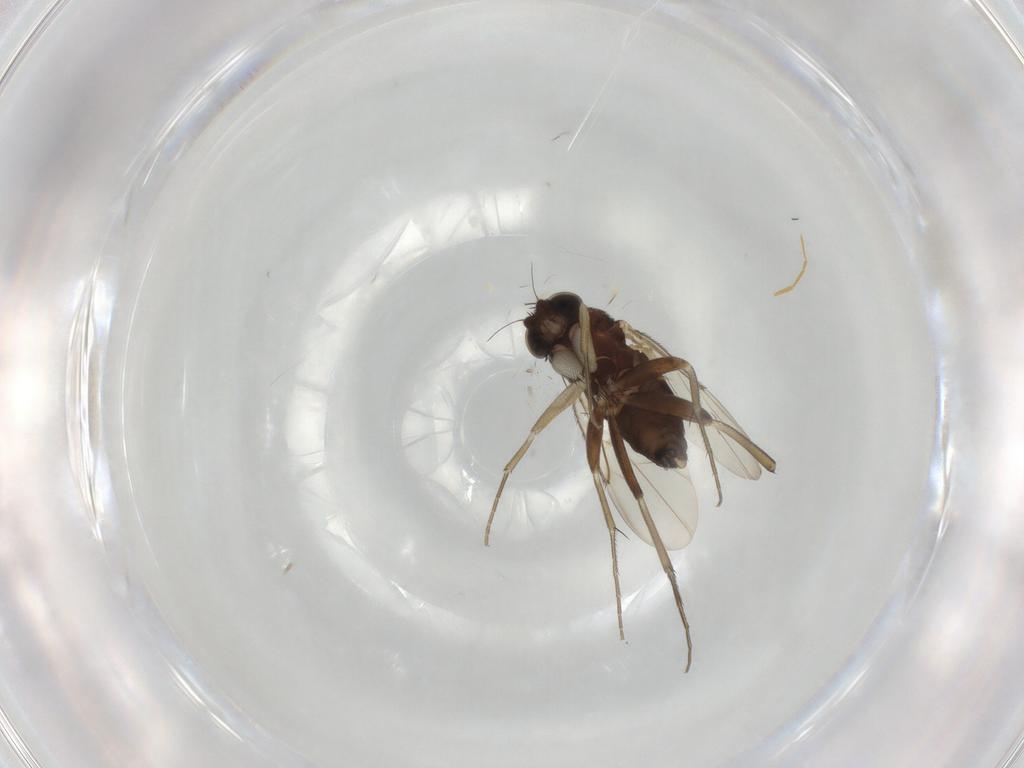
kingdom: Animalia
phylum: Arthropoda
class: Insecta
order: Diptera
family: Phoridae
